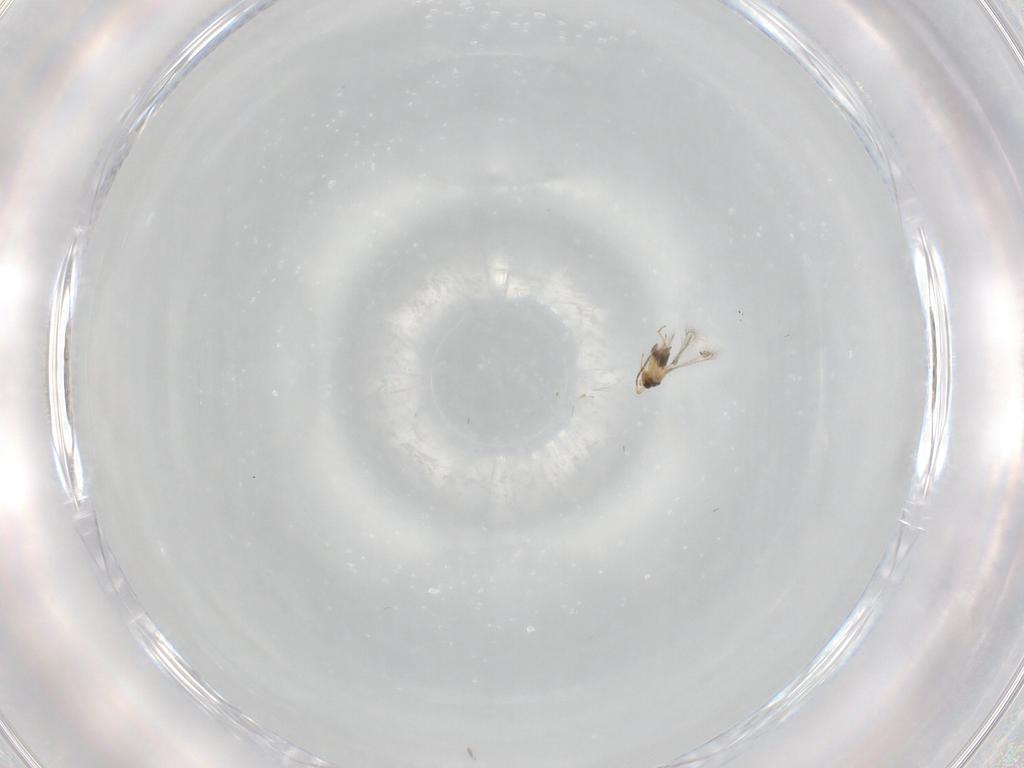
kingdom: Animalia
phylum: Arthropoda
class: Insecta
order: Hymenoptera
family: Mymaridae
